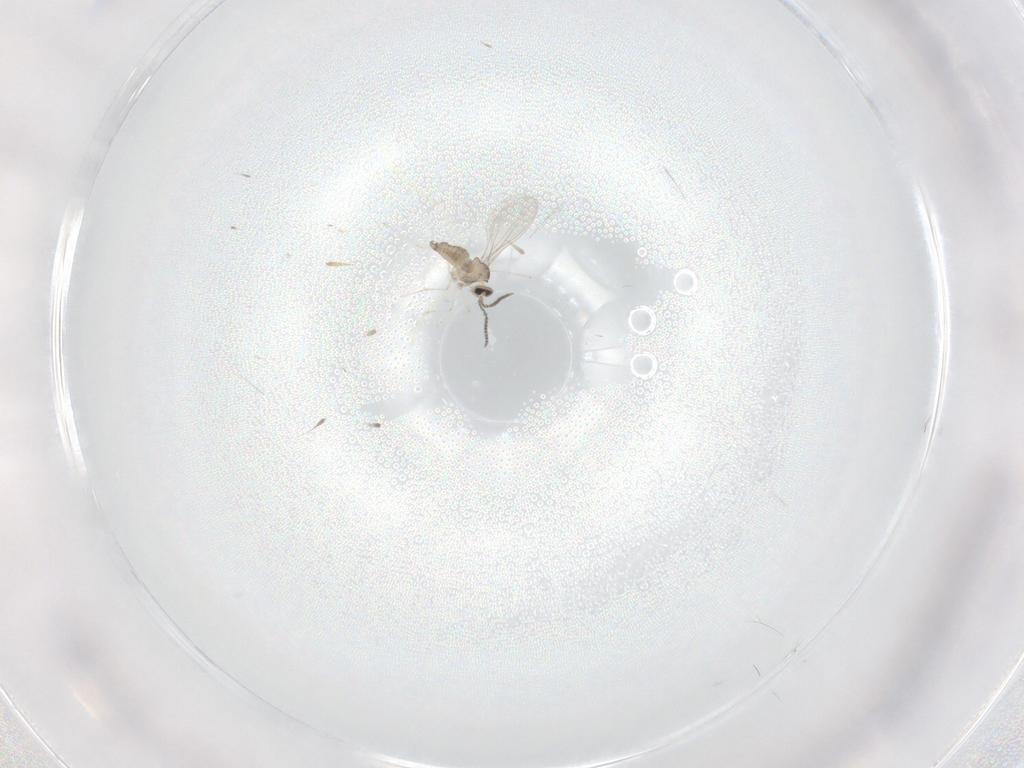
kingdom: Animalia
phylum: Arthropoda
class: Insecta
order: Diptera
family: Cecidomyiidae
